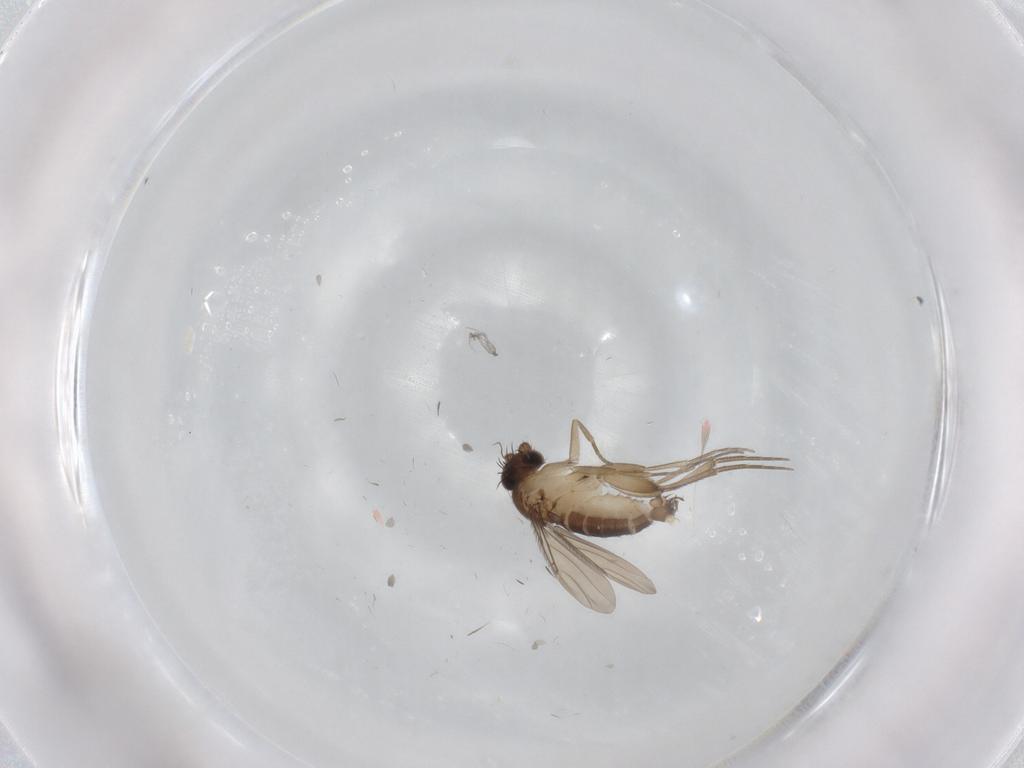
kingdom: Animalia
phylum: Arthropoda
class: Insecta
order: Diptera
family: Phoridae
